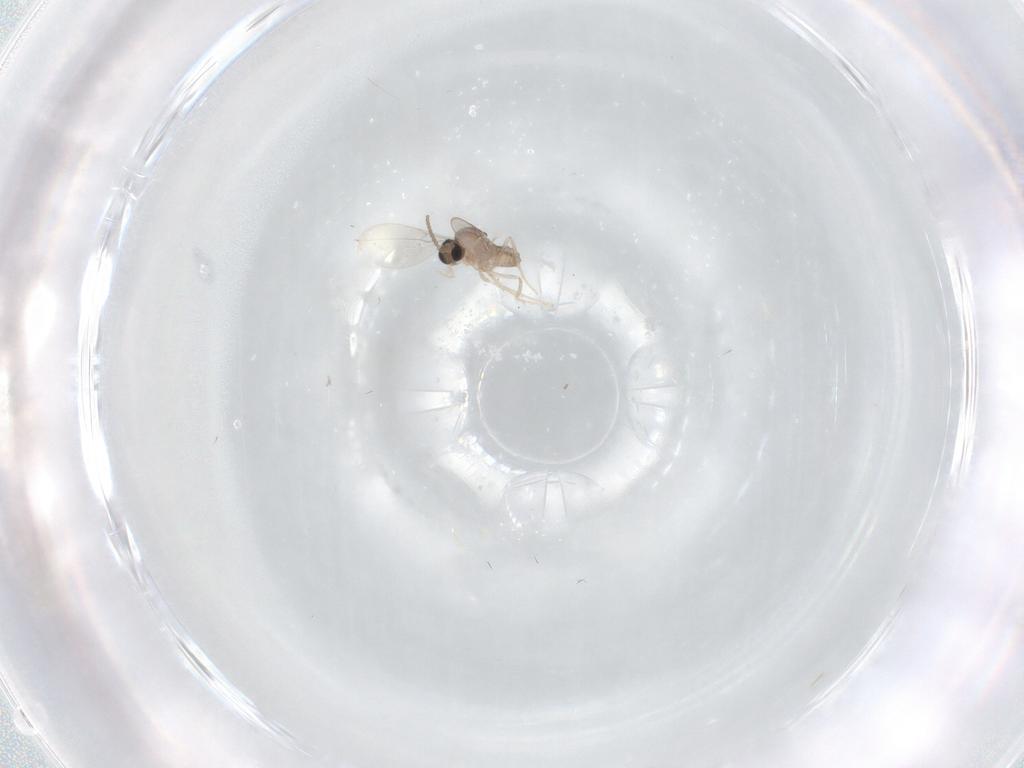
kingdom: Animalia
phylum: Arthropoda
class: Insecta
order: Diptera
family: Cecidomyiidae
